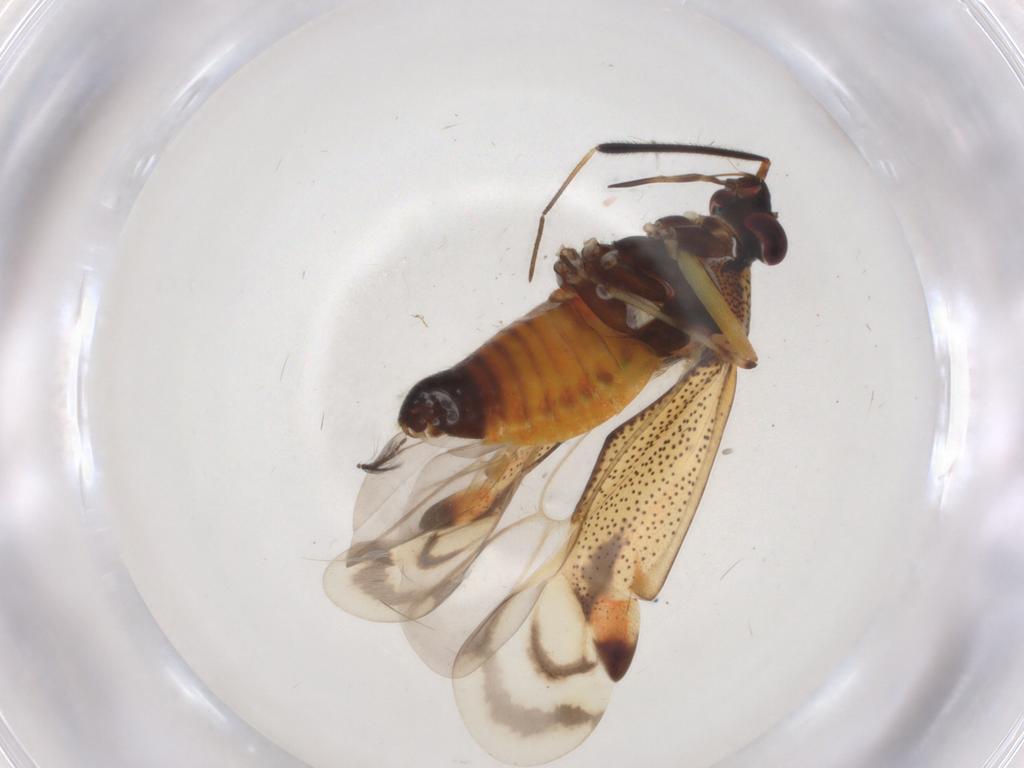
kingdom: Animalia
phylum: Arthropoda
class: Insecta
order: Hemiptera
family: Miridae
